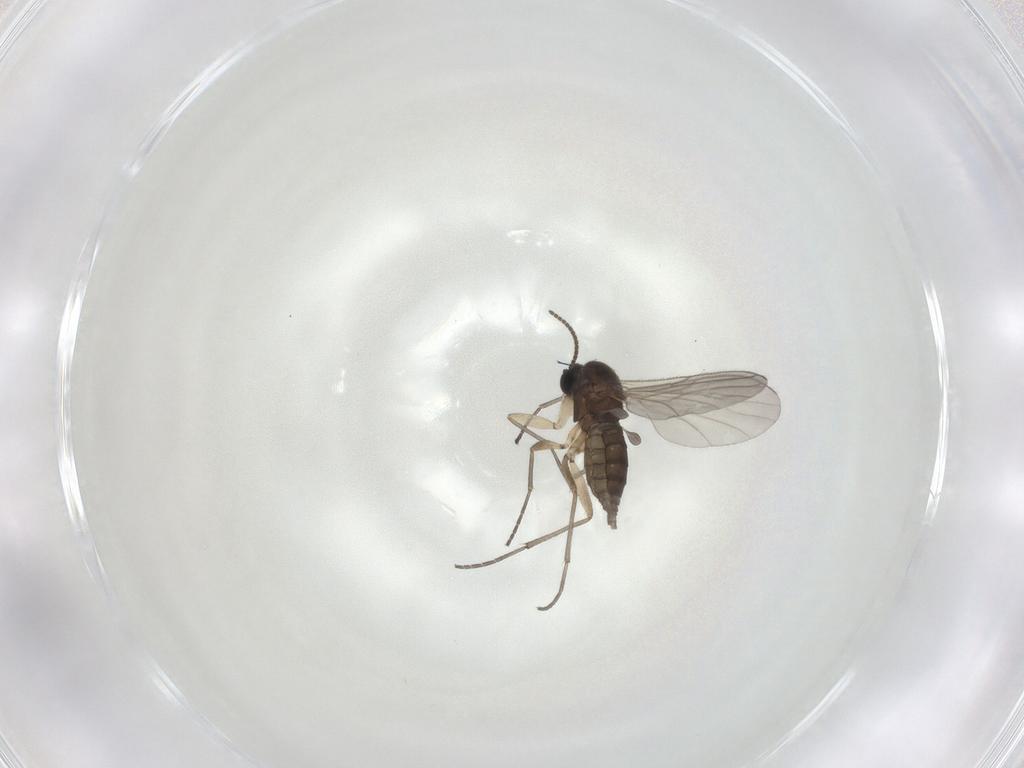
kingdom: Animalia
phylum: Arthropoda
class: Insecta
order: Diptera
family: Sciaridae
